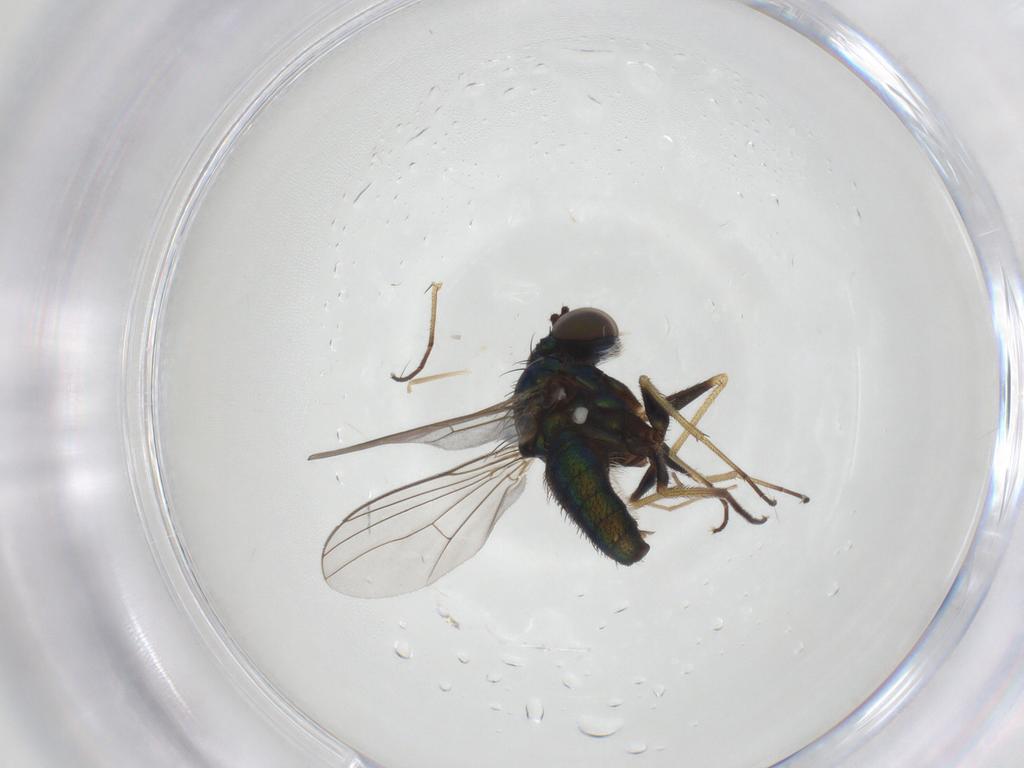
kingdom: Animalia
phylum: Arthropoda
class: Insecta
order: Diptera
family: Dolichopodidae
